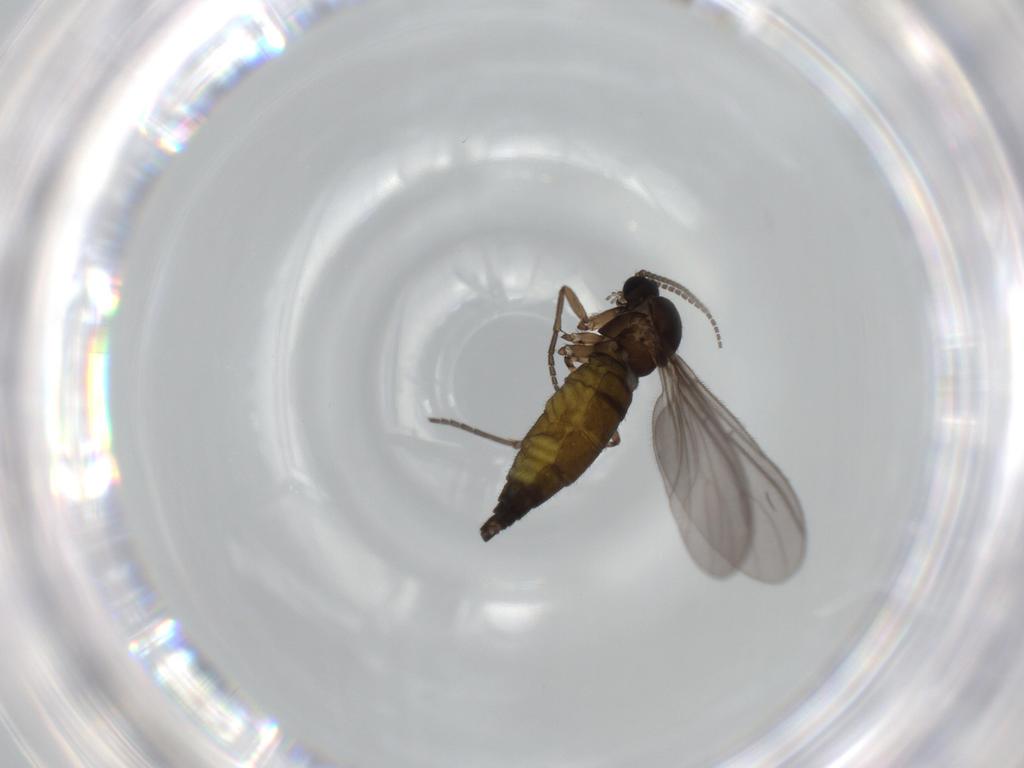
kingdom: Animalia
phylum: Arthropoda
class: Insecta
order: Diptera
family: Sciaridae
